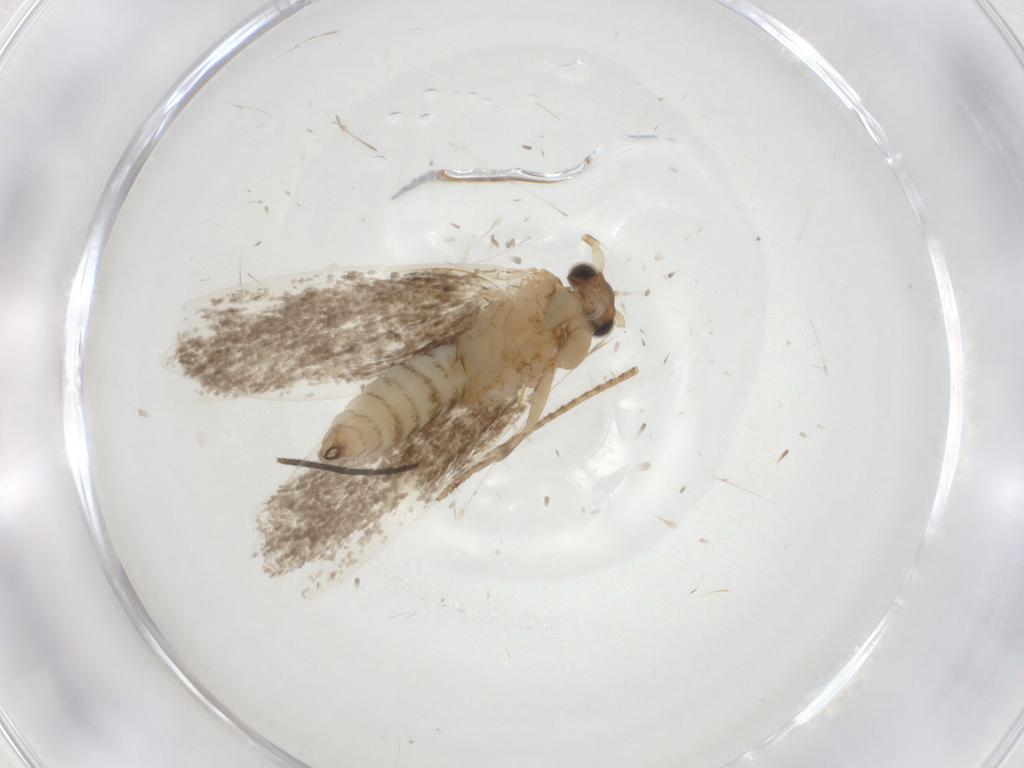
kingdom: Animalia
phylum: Arthropoda
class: Insecta
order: Lepidoptera
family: Tineidae
